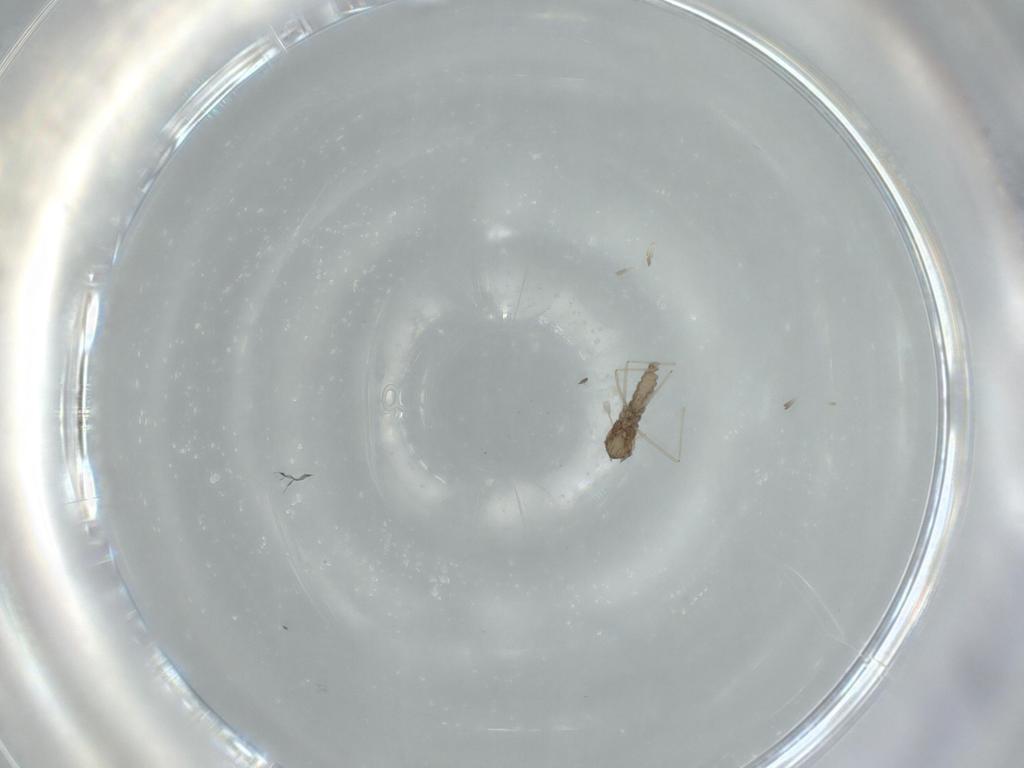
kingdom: Animalia
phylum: Arthropoda
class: Insecta
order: Diptera
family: Cecidomyiidae
